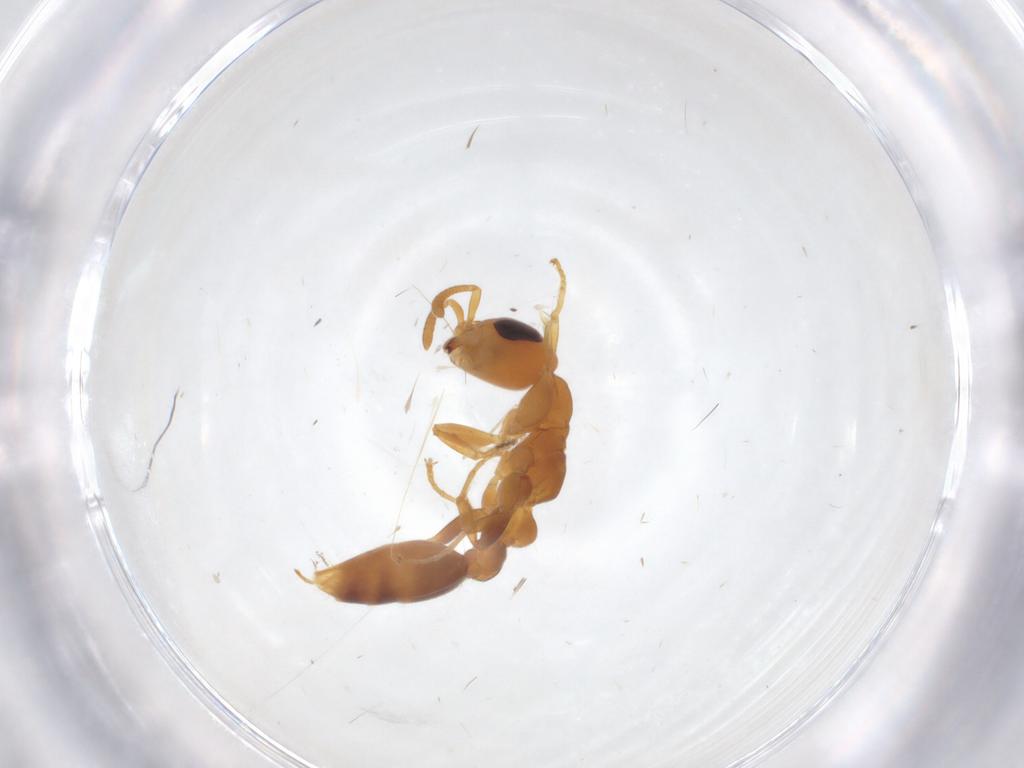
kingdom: Animalia
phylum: Arthropoda
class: Insecta
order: Hymenoptera
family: Formicidae
